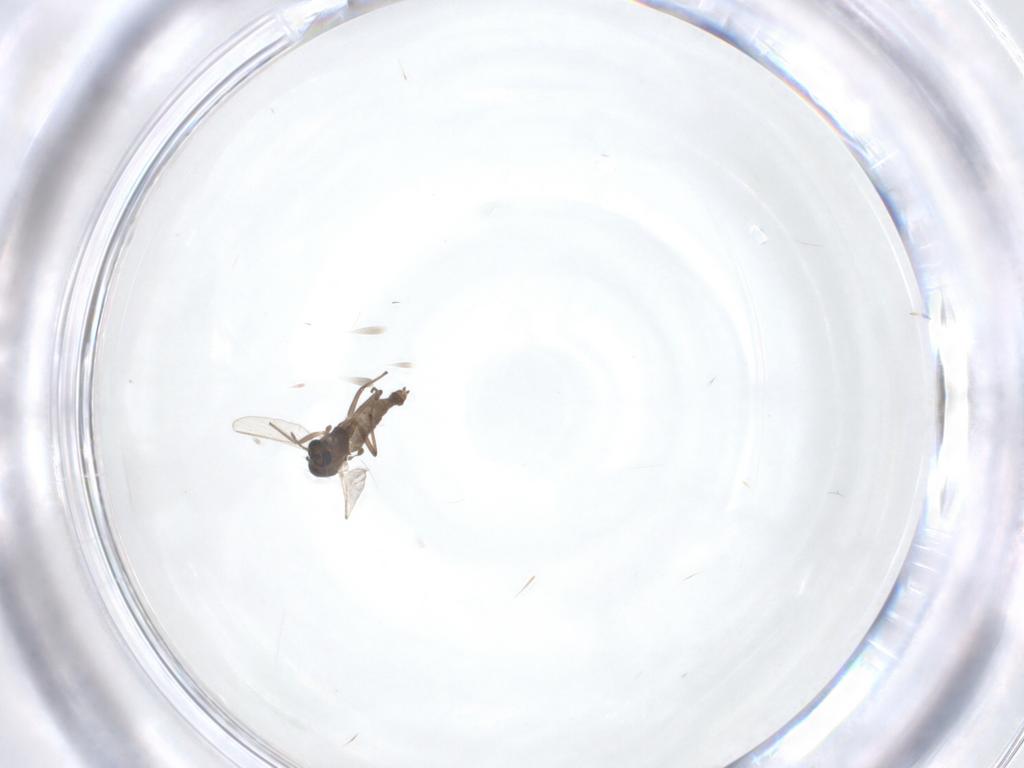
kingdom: Animalia
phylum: Arthropoda
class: Insecta
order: Diptera
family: Chironomidae
